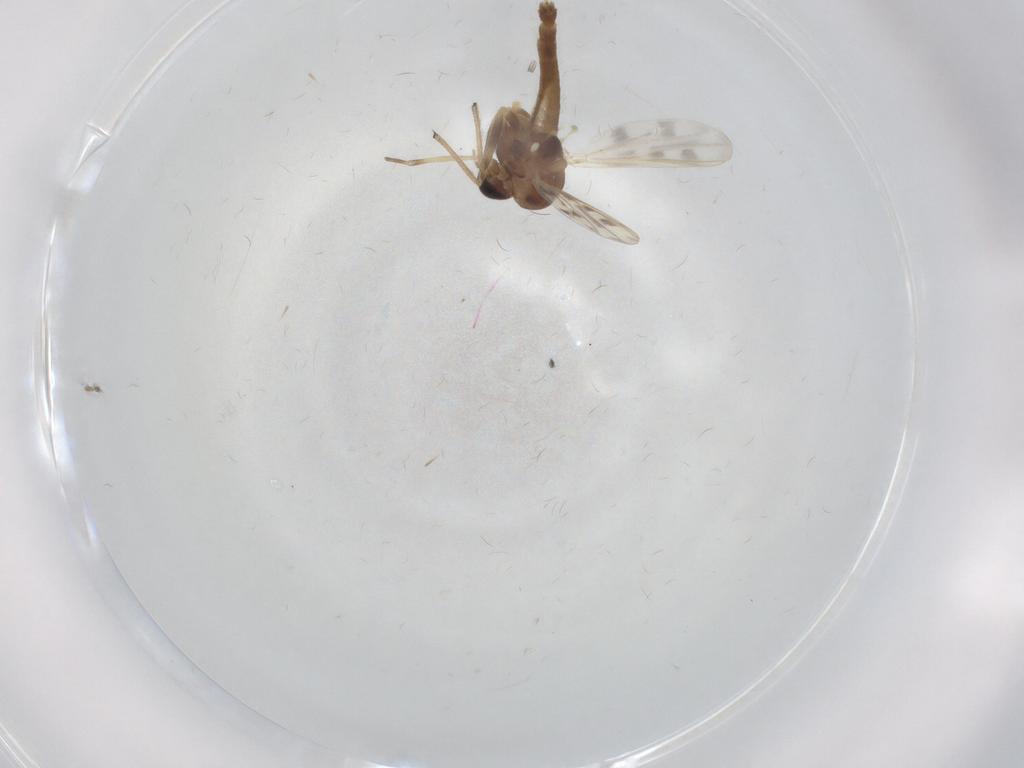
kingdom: Animalia
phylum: Arthropoda
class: Insecta
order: Diptera
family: Chironomidae
